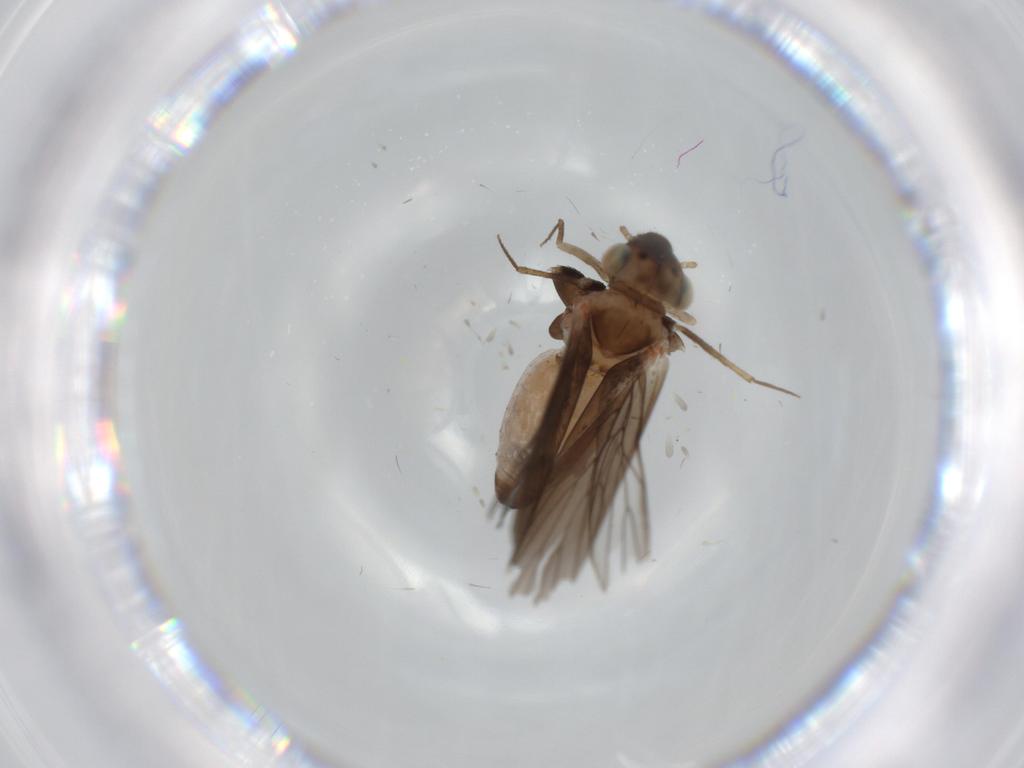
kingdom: Animalia
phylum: Arthropoda
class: Insecta
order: Psocodea
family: Caeciliusidae
